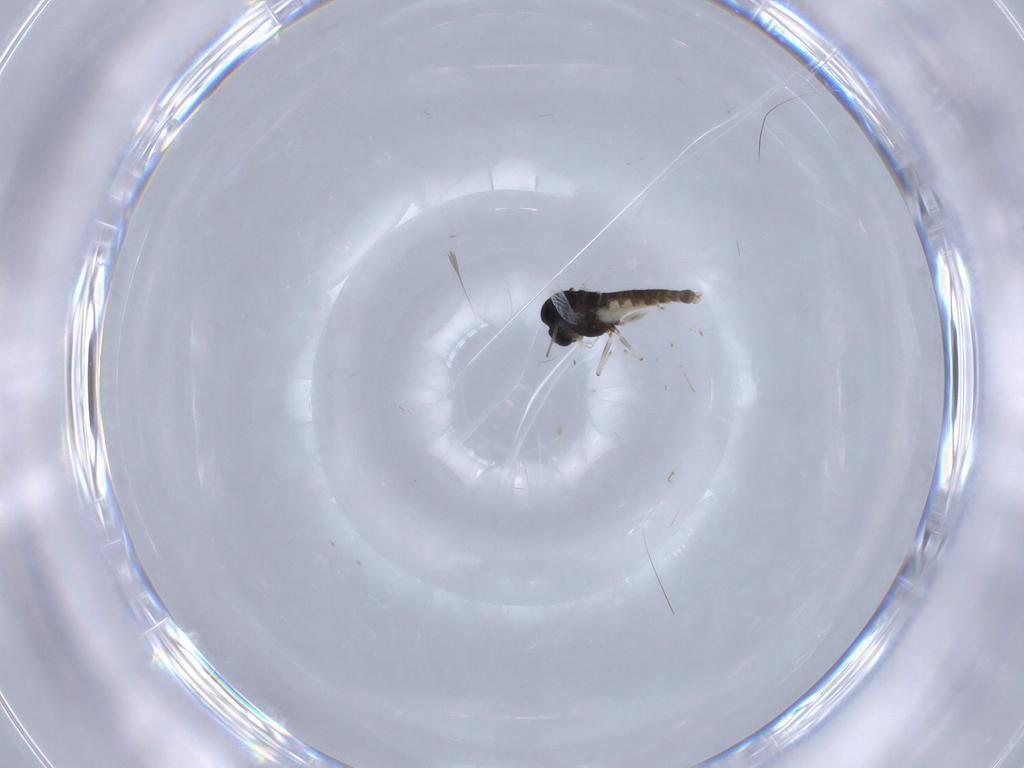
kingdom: Animalia
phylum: Arthropoda
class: Insecta
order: Diptera
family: Chironomidae
